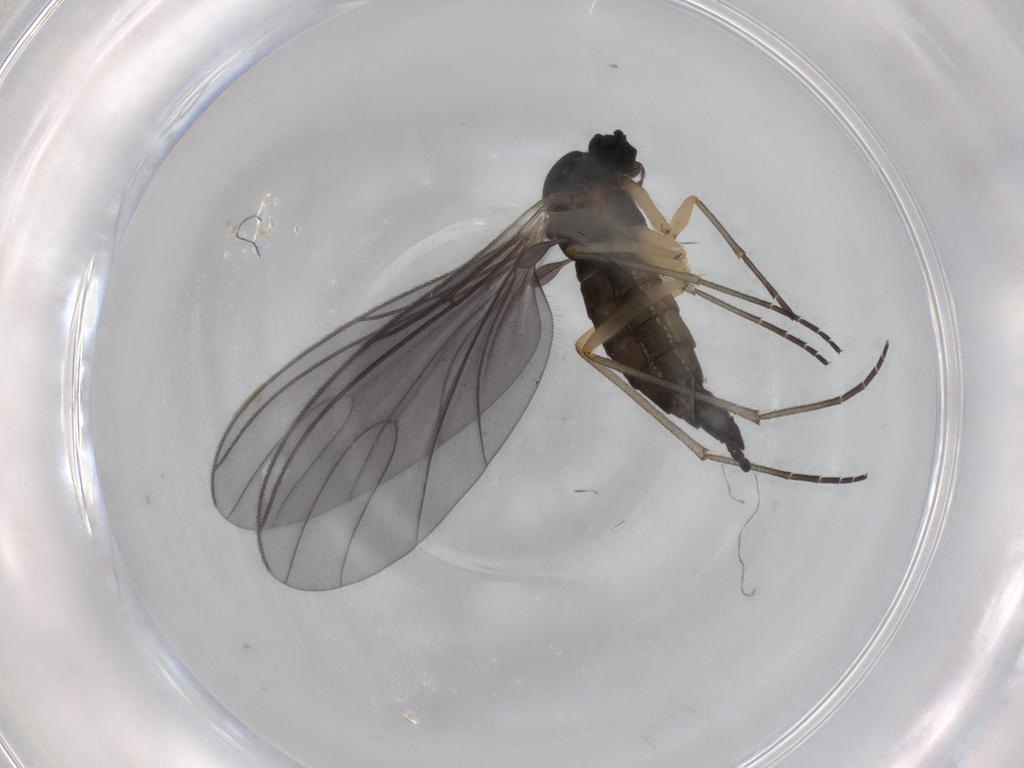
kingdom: Animalia
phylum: Arthropoda
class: Insecta
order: Diptera
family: Sciaridae
